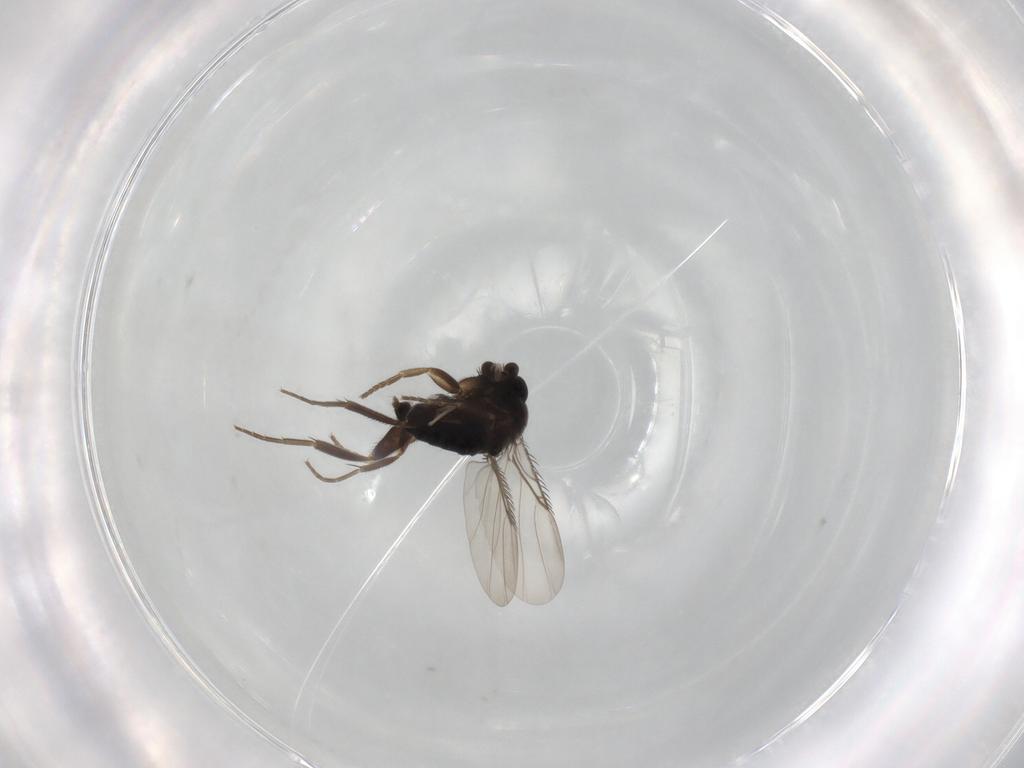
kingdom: Animalia
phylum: Arthropoda
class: Insecta
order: Diptera
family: Phoridae
